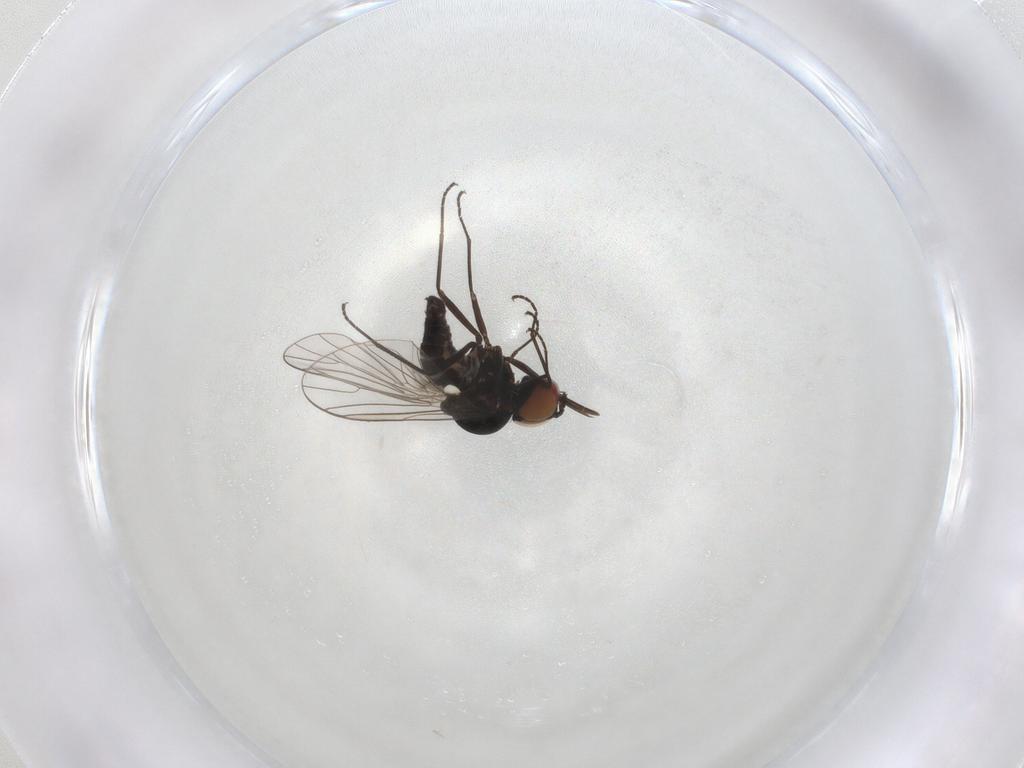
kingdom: Animalia
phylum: Arthropoda
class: Insecta
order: Diptera
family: Bombyliidae
